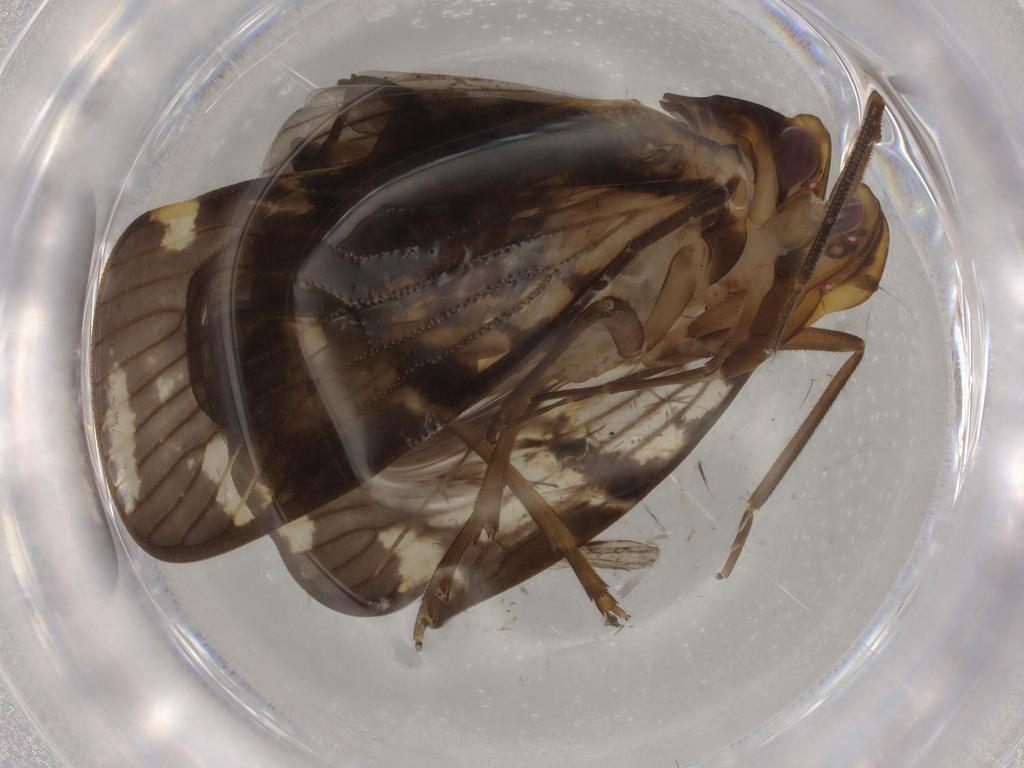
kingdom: Animalia
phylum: Arthropoda
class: Insecta
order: Hemiptera
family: Cixiidae
